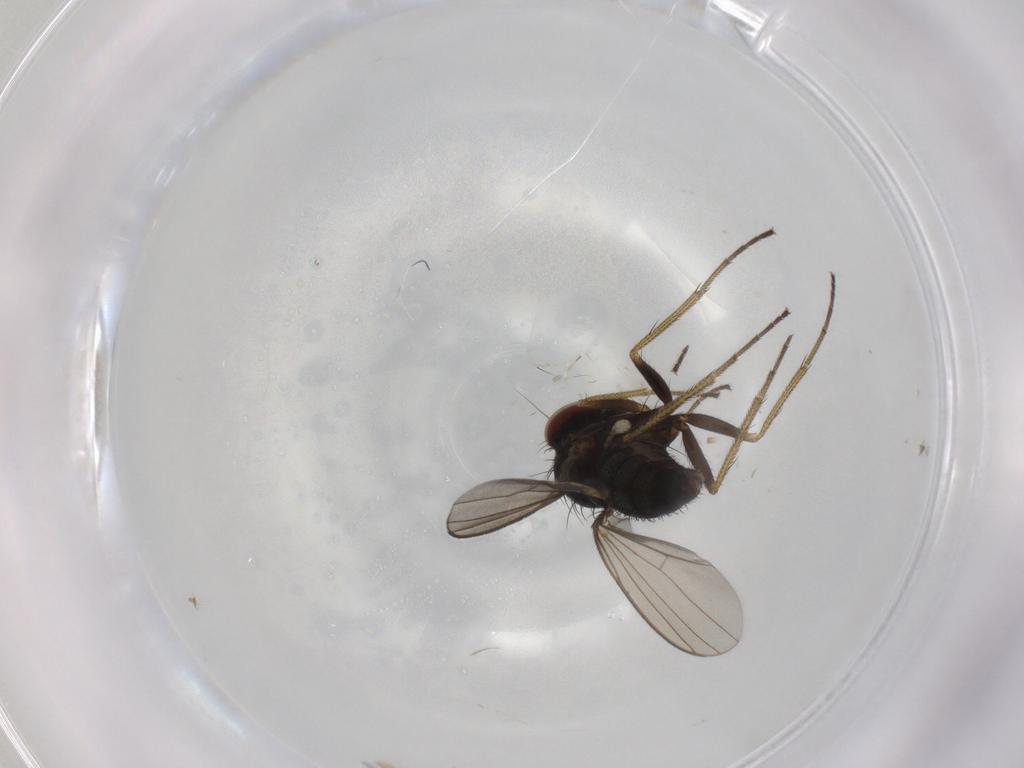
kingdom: Animalia
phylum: Arthropoda
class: Insecta
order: Diptera
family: Dolichopodidae
